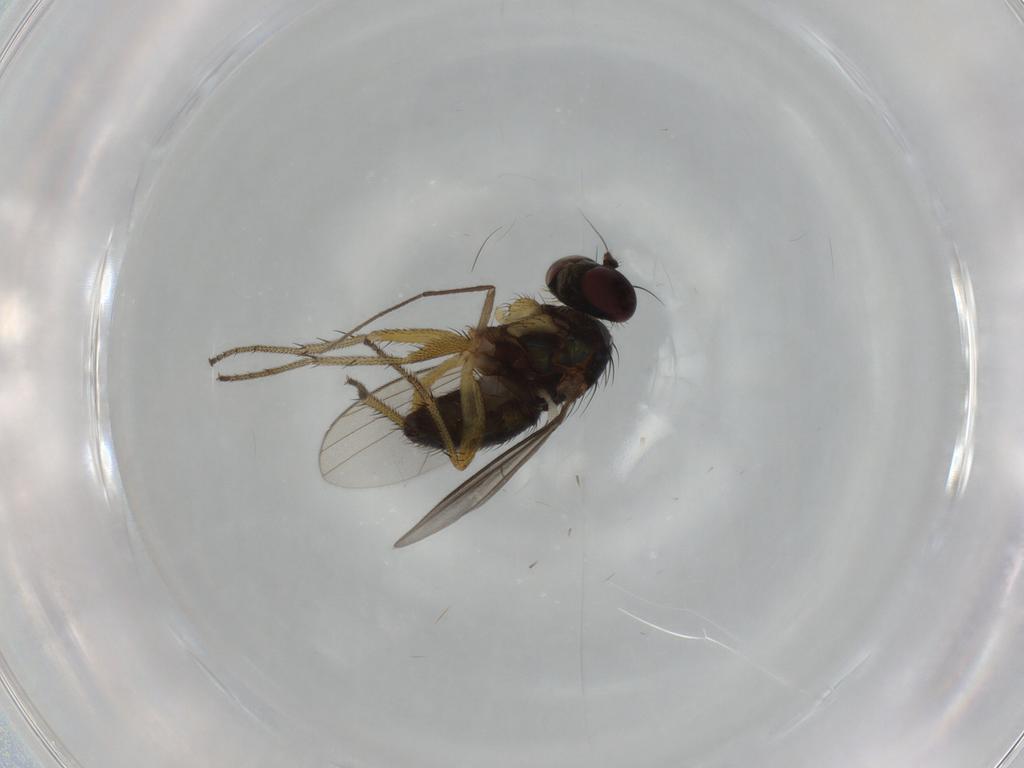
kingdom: Animalia
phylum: Arthropoda
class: Insecta
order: Diptera
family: Dolichopodidae
